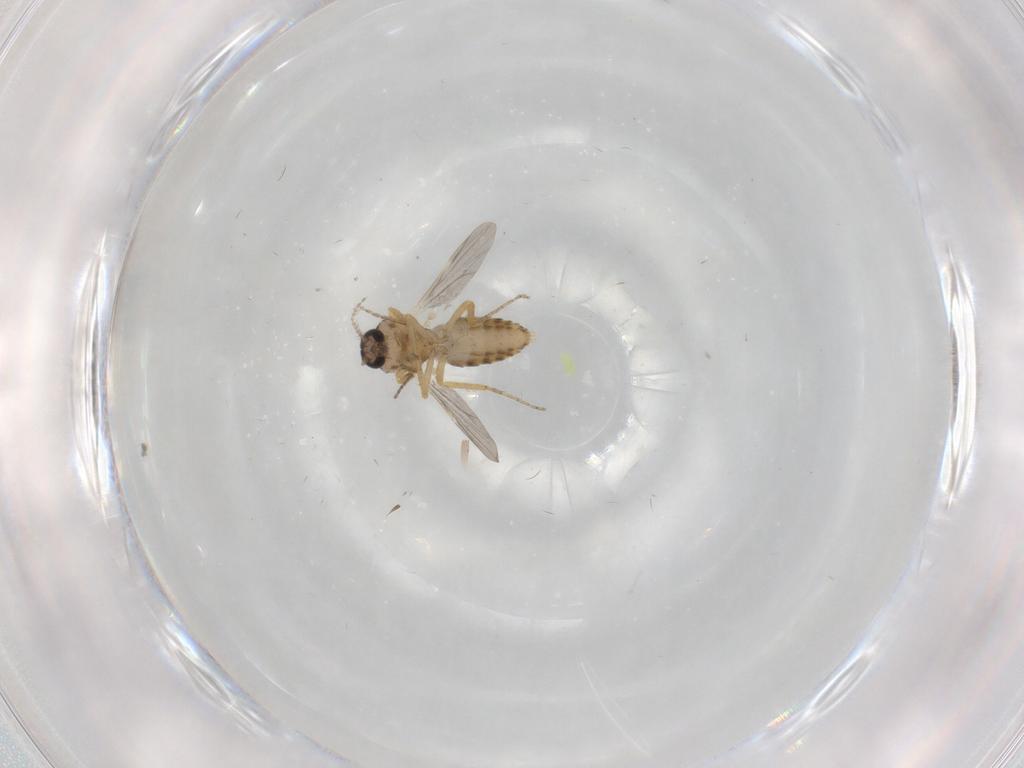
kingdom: Animalia
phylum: Arthropoda
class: Insecta
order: Diptera
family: Ceratopogonidae
